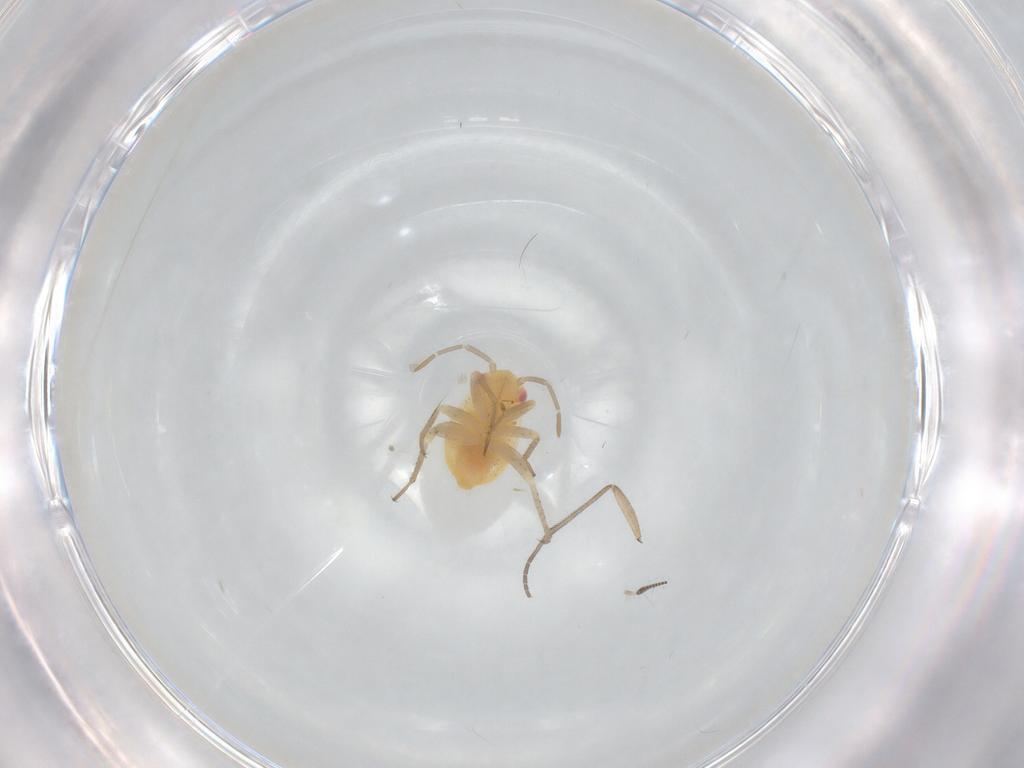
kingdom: Animalia
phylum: Arthropoda
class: Insecta
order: Hemiptera
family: Miridae
